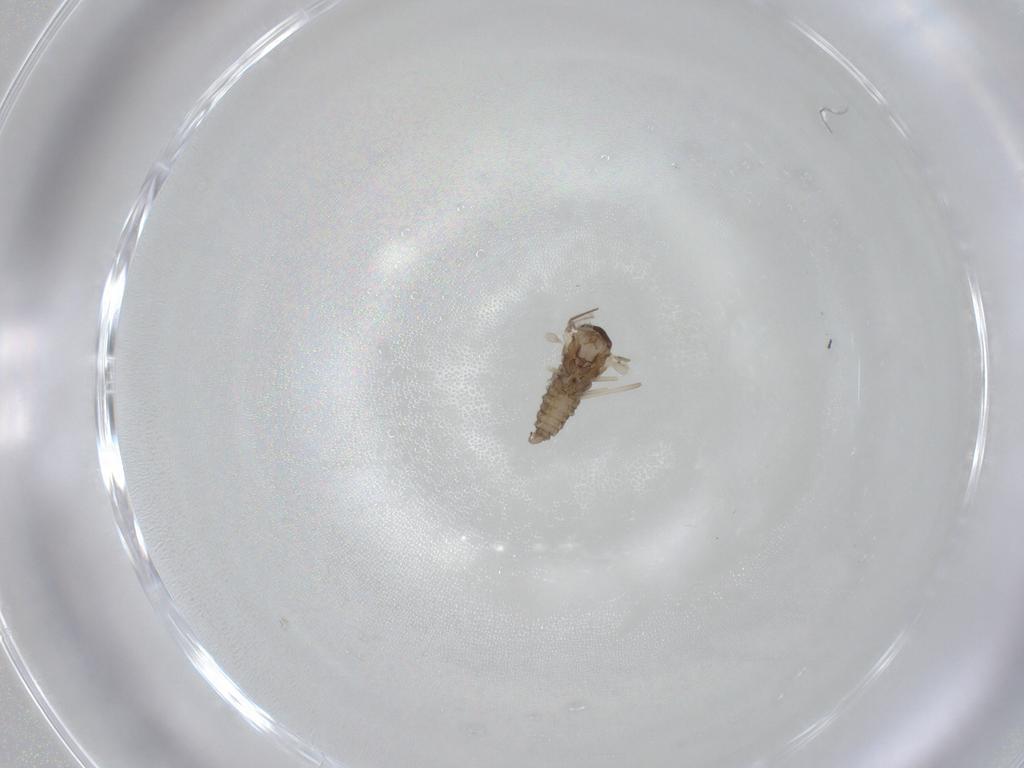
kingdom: Animalia
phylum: Arthropoda
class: Insecta
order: Diptera
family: Cecidomyiidae
